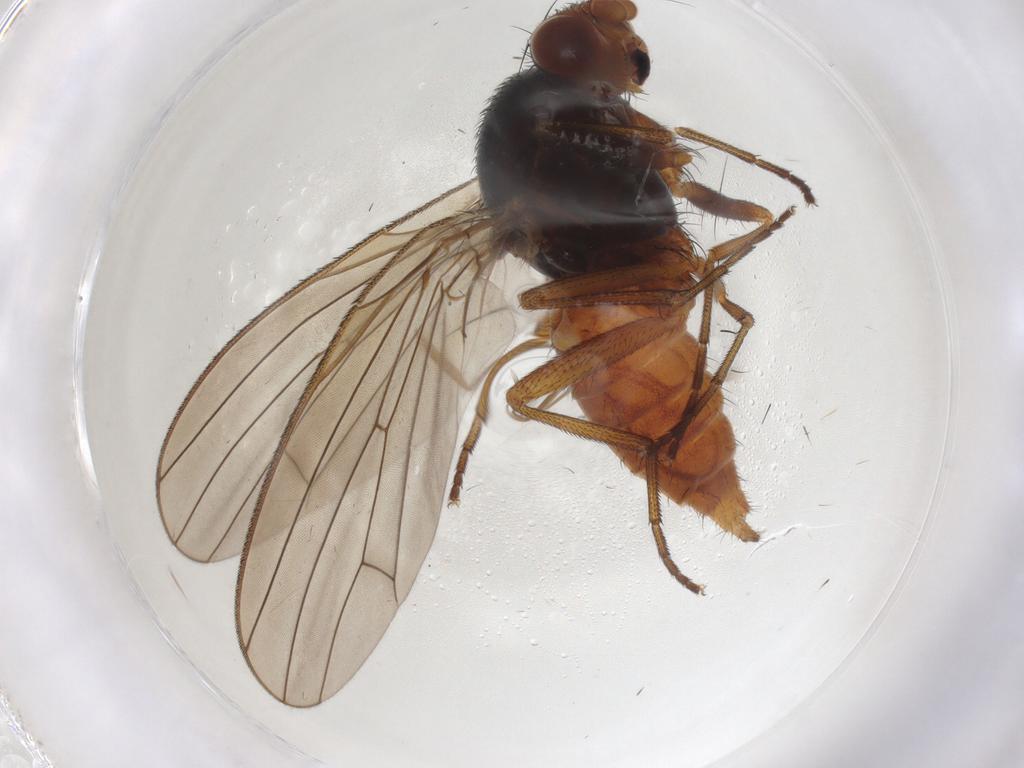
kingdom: Animalia
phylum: Arthropoda
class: Insecta
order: Diptera
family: Heleomyzidae
